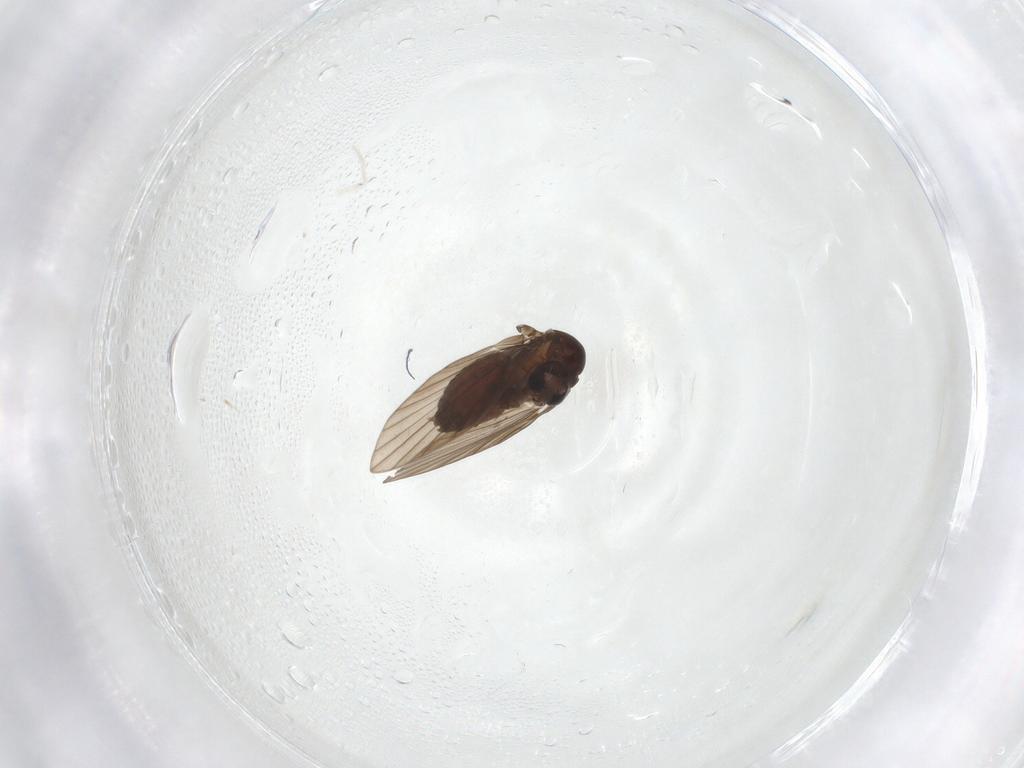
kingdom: Animalia
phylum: Arthropoda
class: Insecta
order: Diptera
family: Psychodidae
